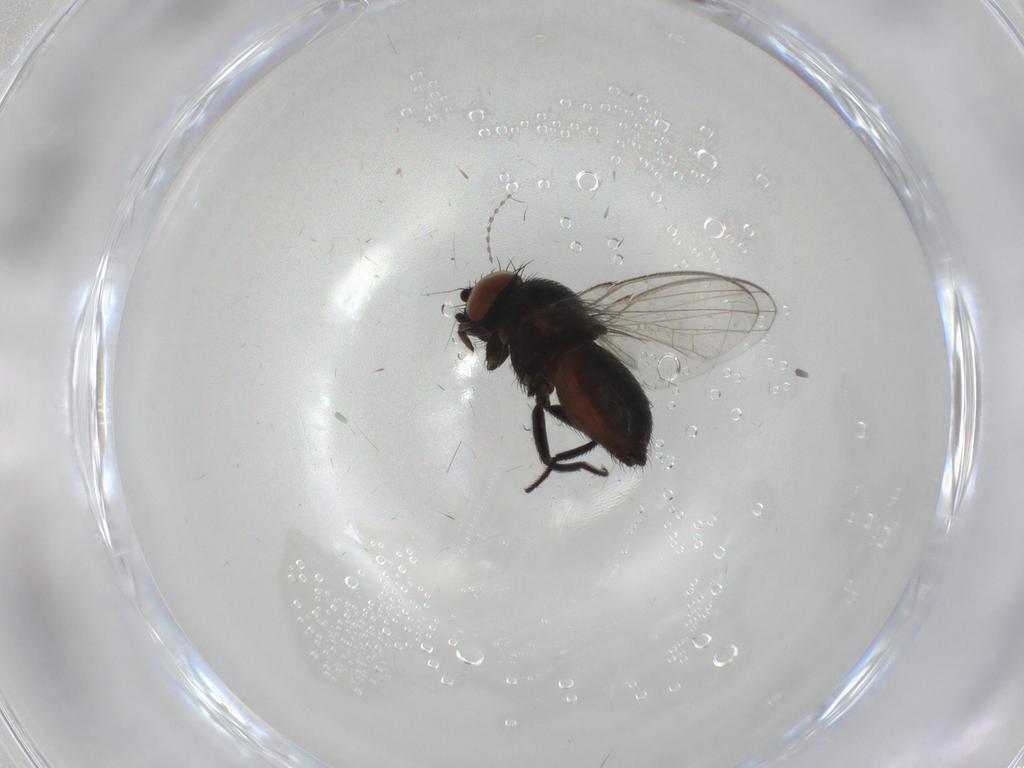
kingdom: Animalia
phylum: Arthropoda
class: Insecta
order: Diptera
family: Milichiidae
